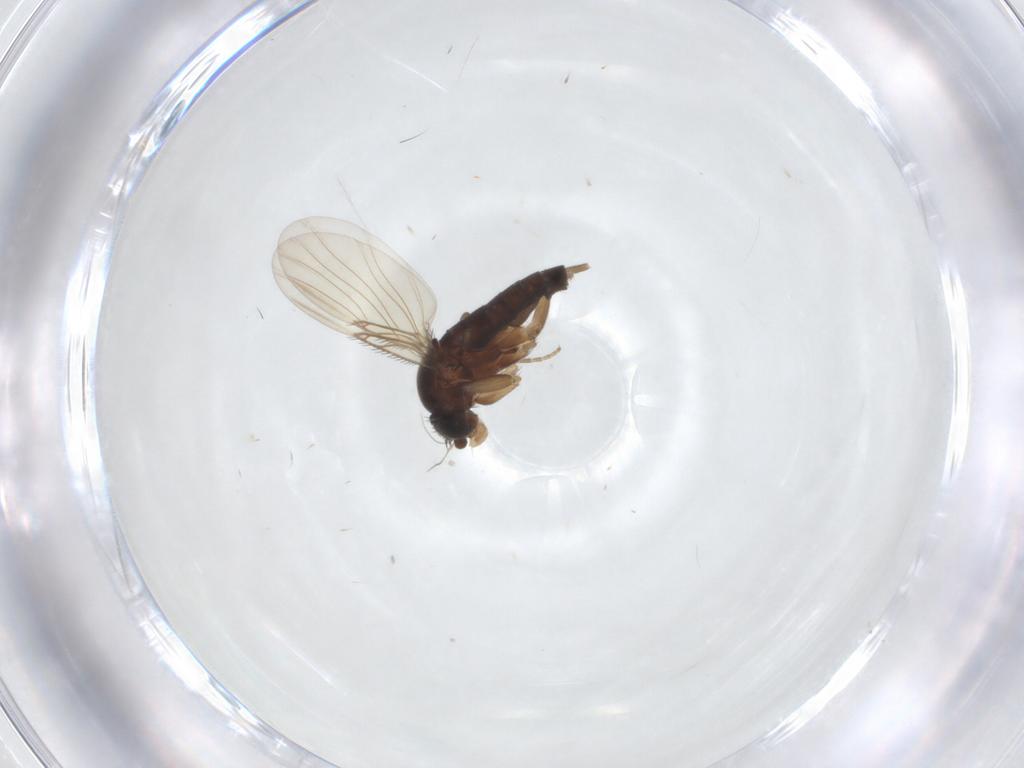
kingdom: Animalia
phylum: Arthropoda
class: Insecta
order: Diptera
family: Phoridae
